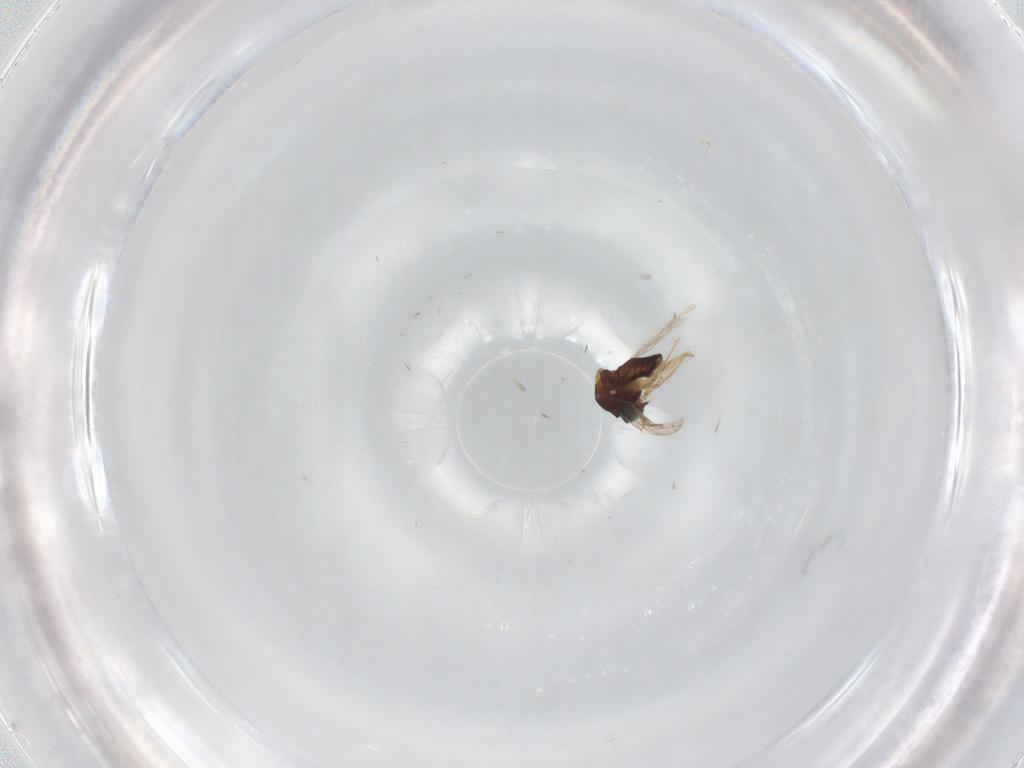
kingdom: Animalia
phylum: Arthropoda
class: Insecta
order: Diptera
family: Ceratopogonidae
